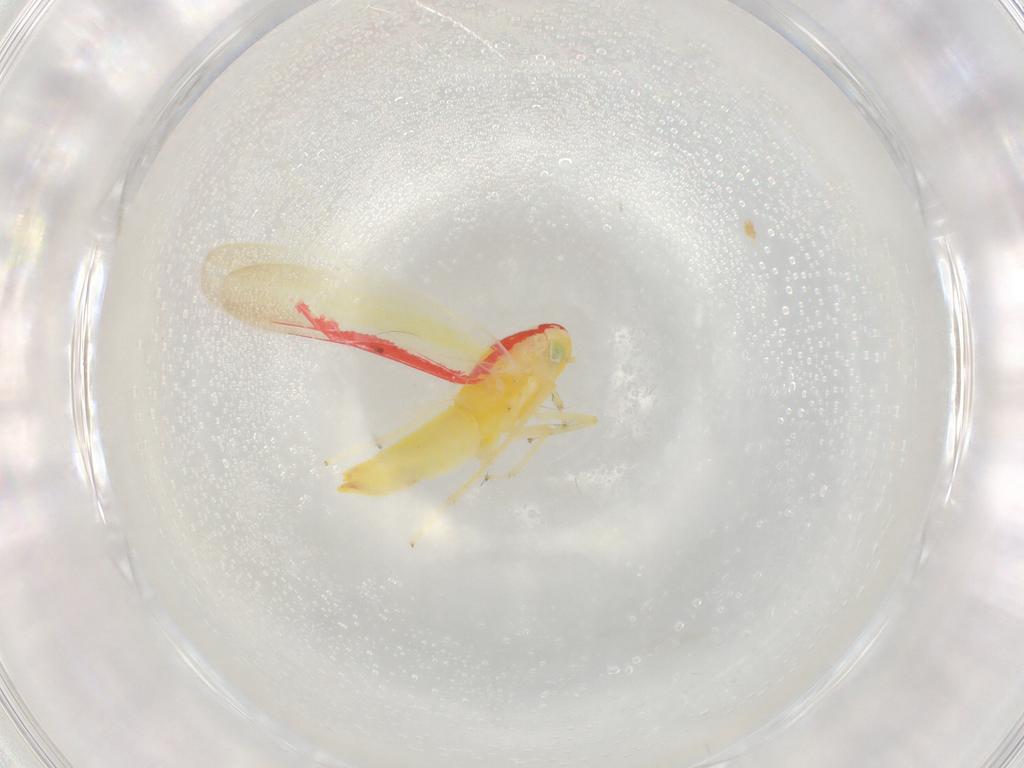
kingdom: Animalia
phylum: Arthropoda
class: Insecta
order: Hemiptera
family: Cicadellidae
